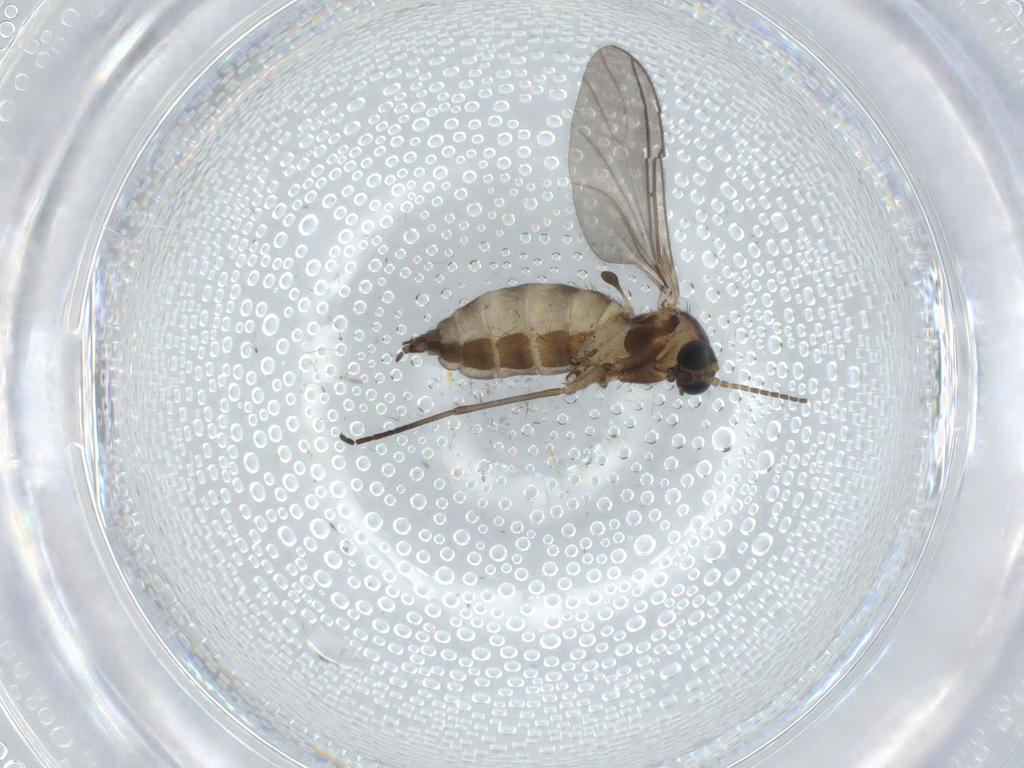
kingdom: Animalia
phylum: Arthropoda
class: Insecta
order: Diptera
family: Sciaridae
